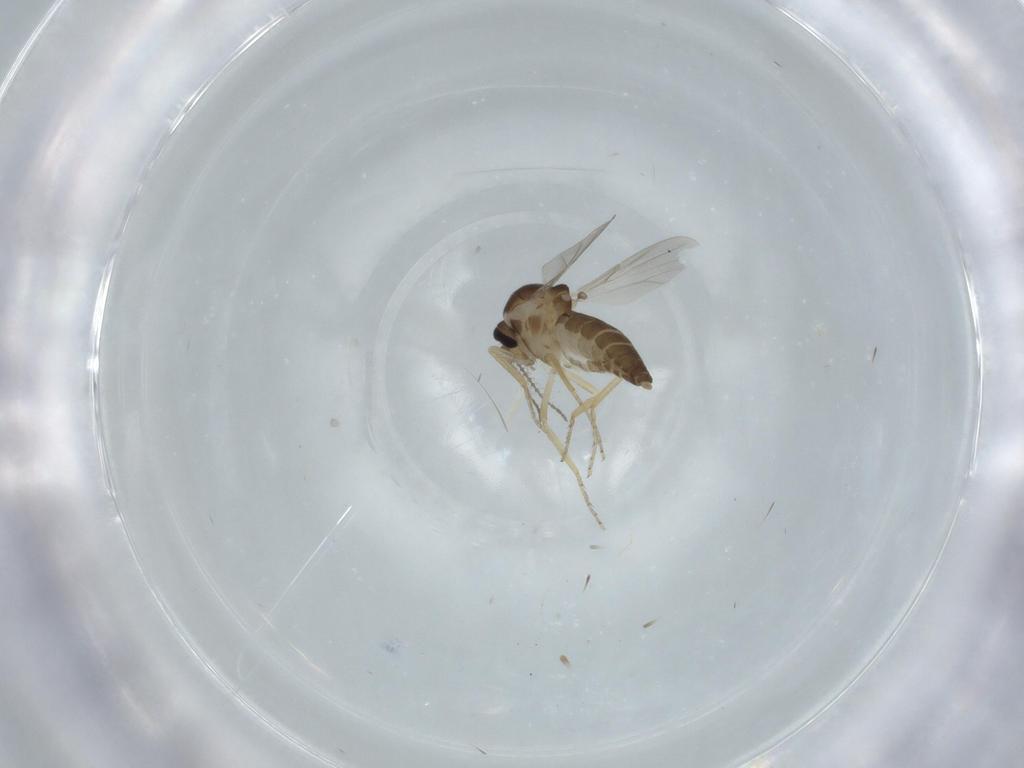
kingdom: Animalia
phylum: Arthropoda
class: Insecta
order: Diptera
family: Ceratopogonidae
